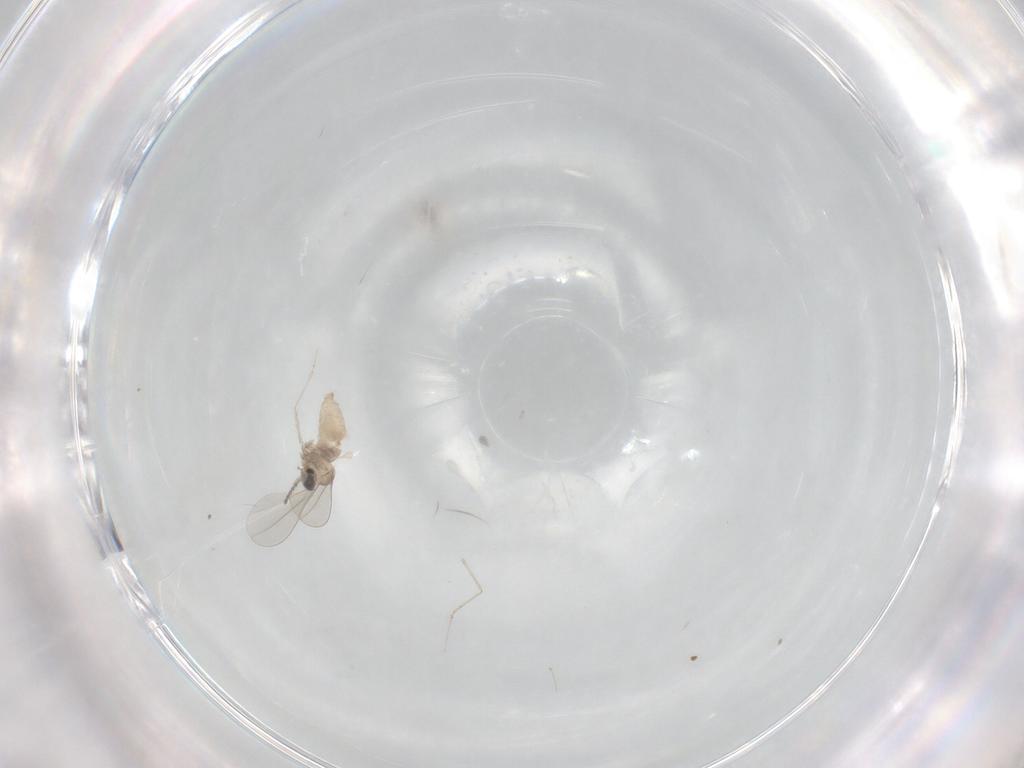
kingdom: Animalia
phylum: Arthropoda
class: Insecta
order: Diptera
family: Cecidomyiidae
